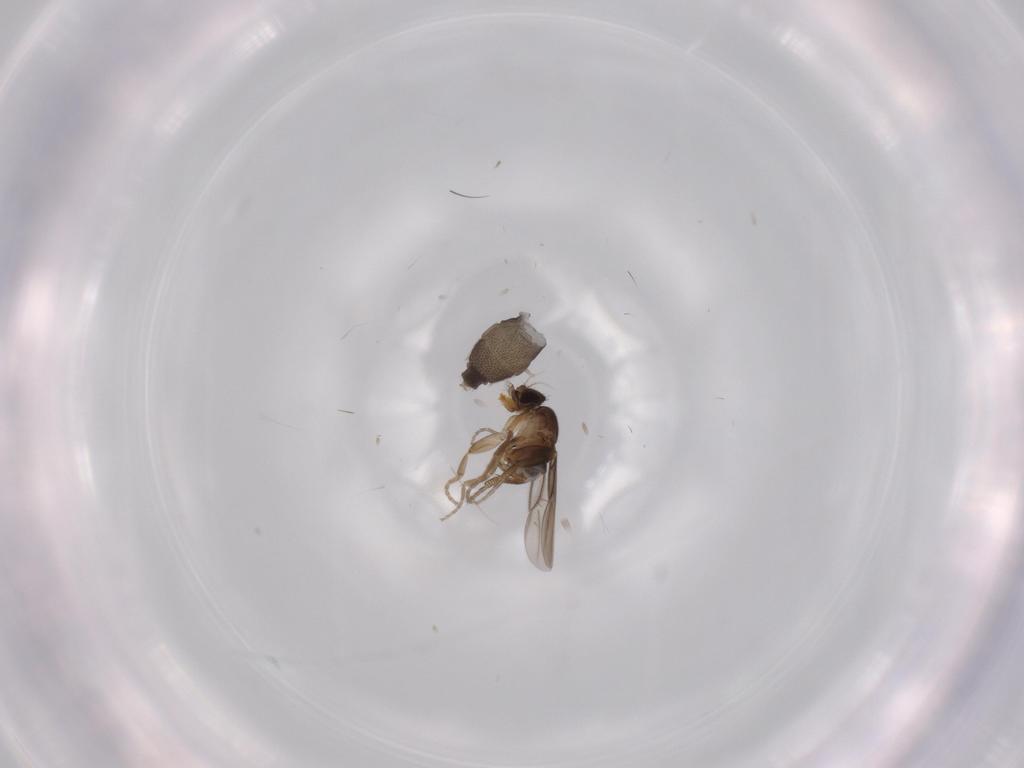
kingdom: Animalia
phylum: Arthropoda
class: Insecta
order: Diptera
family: Phoridae
